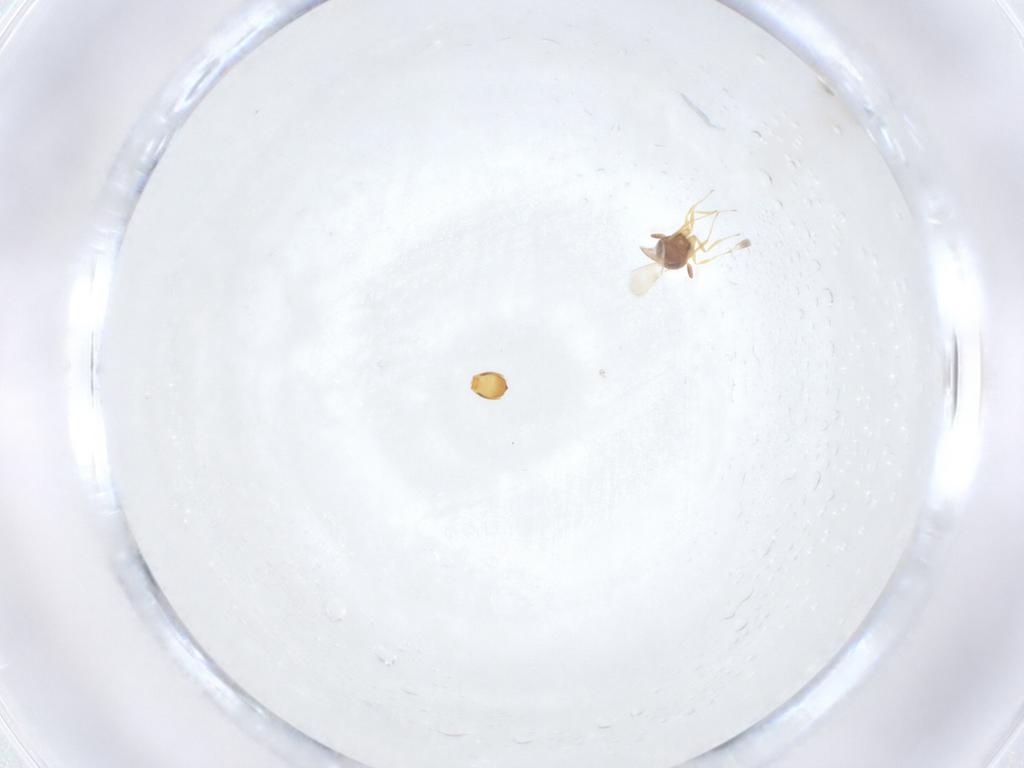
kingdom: Animalia
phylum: Arthropoda
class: Insecta
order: Hymenoptera
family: Scelionidae
